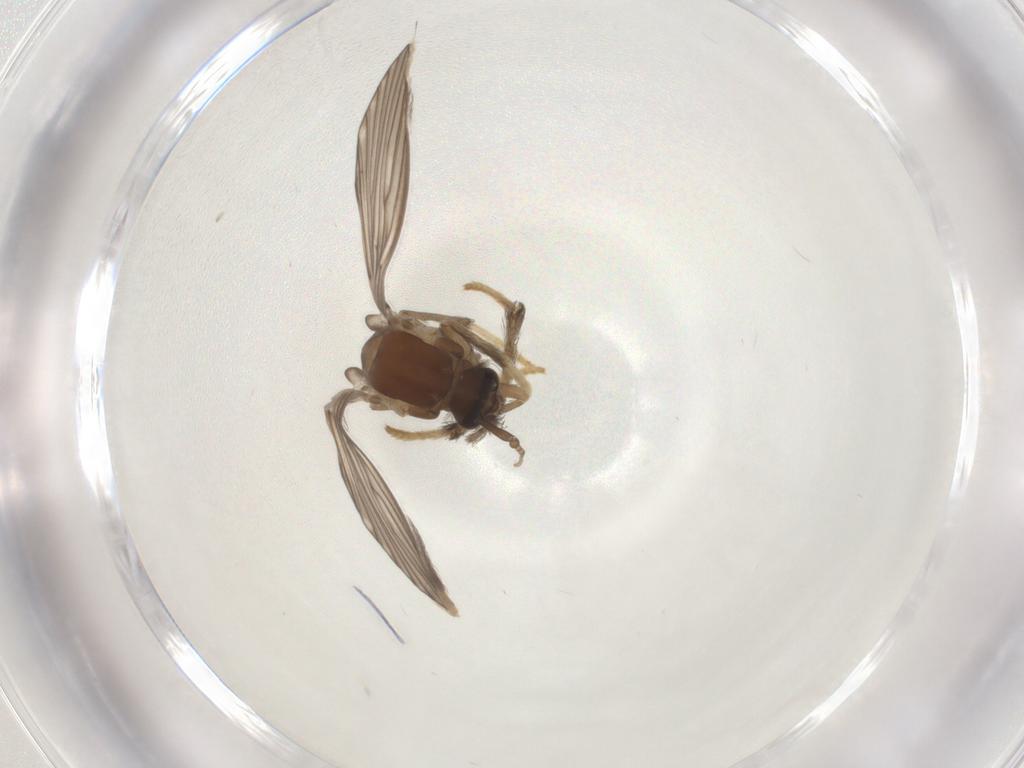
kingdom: Animalia
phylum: Arthropoda
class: Insecta
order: Diptera
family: Psychodidae
